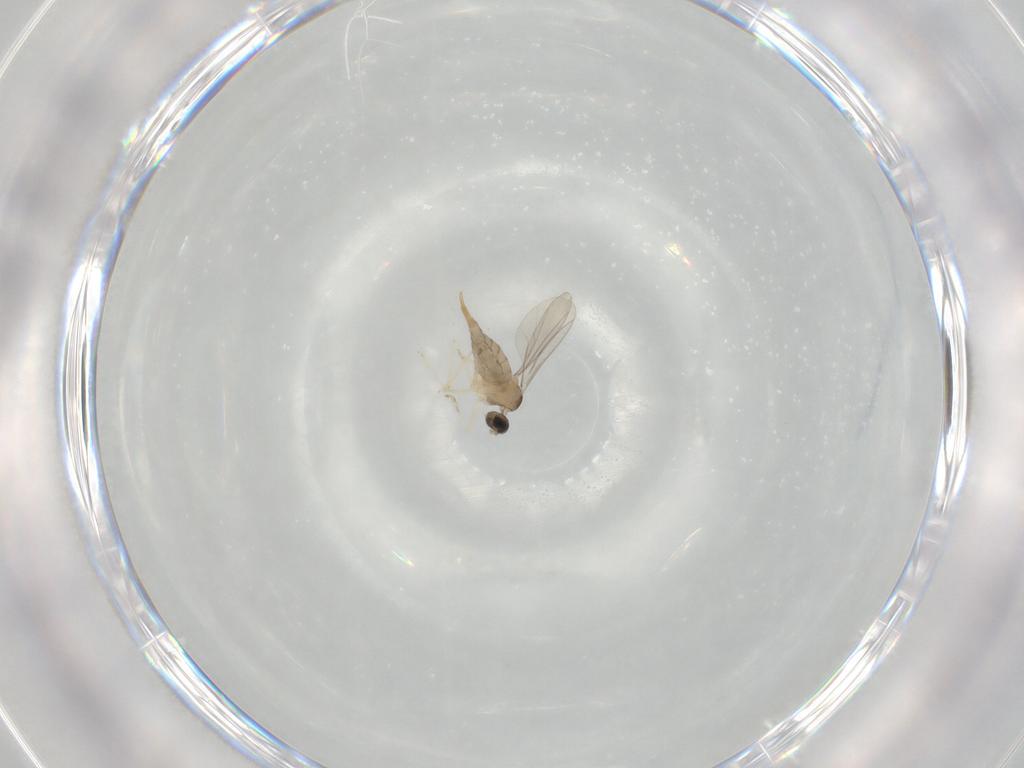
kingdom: Animalia
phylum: Arthropoda
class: Insecta
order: Diptera
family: Cecidomyiidae
